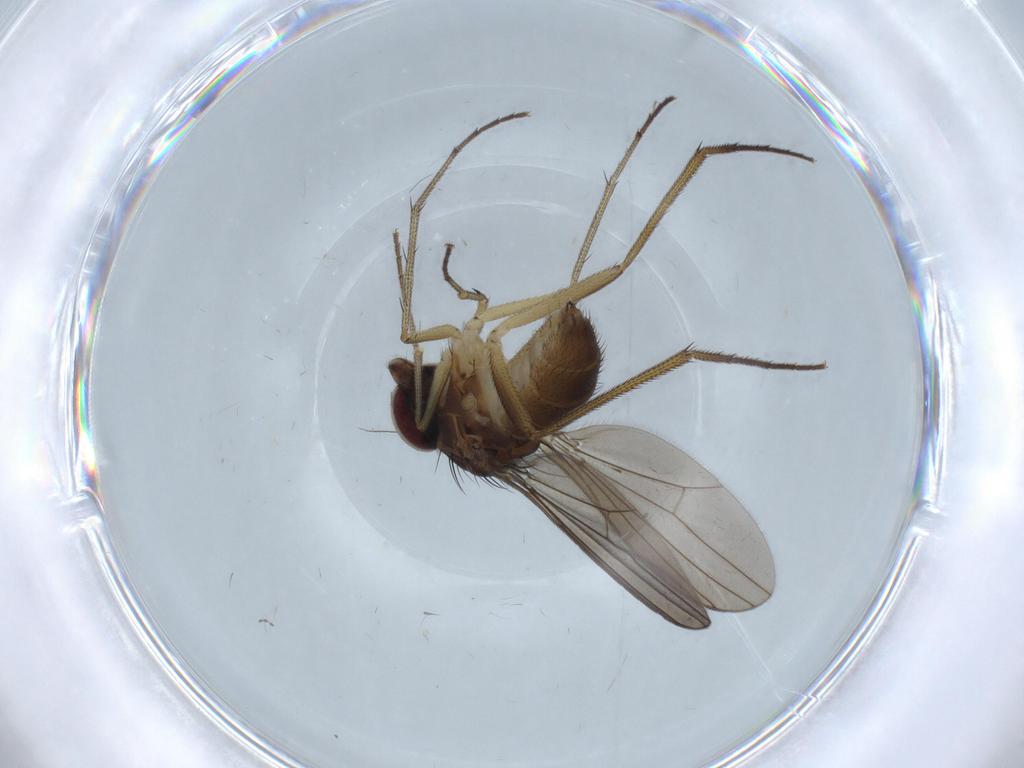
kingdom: Animalia
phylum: Arthropoda
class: Insecta
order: Diptera
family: Dolichopodidae
